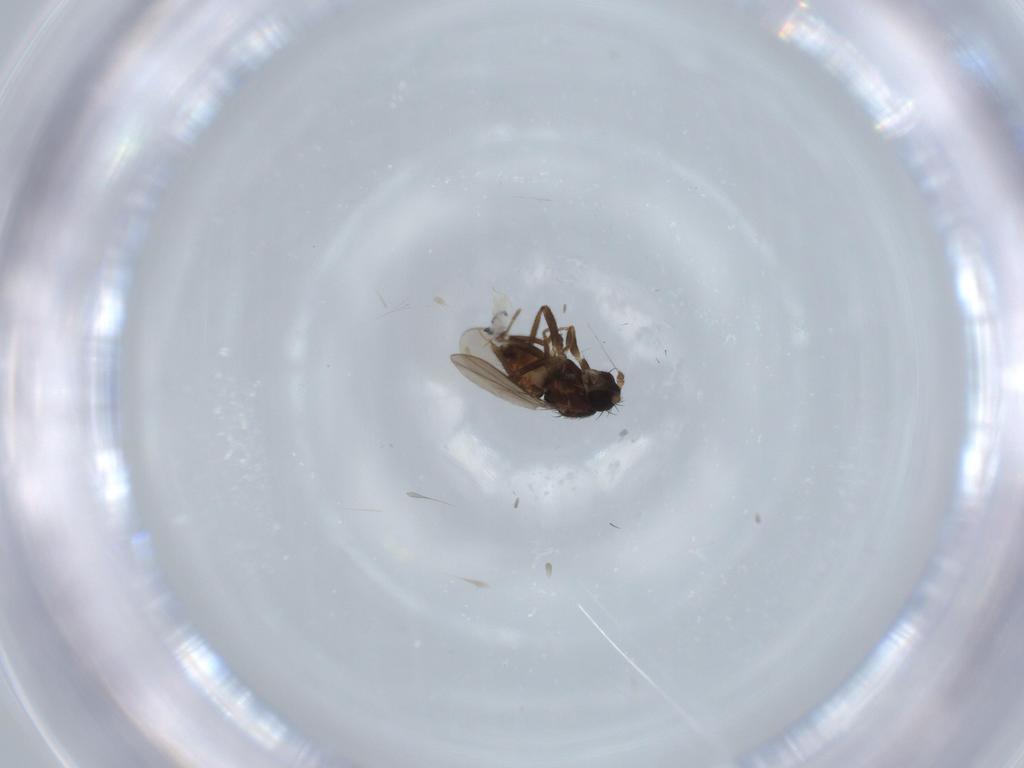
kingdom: Animalia
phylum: Arthropoda
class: Insecta
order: Diptera
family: Sphaeroceridae
